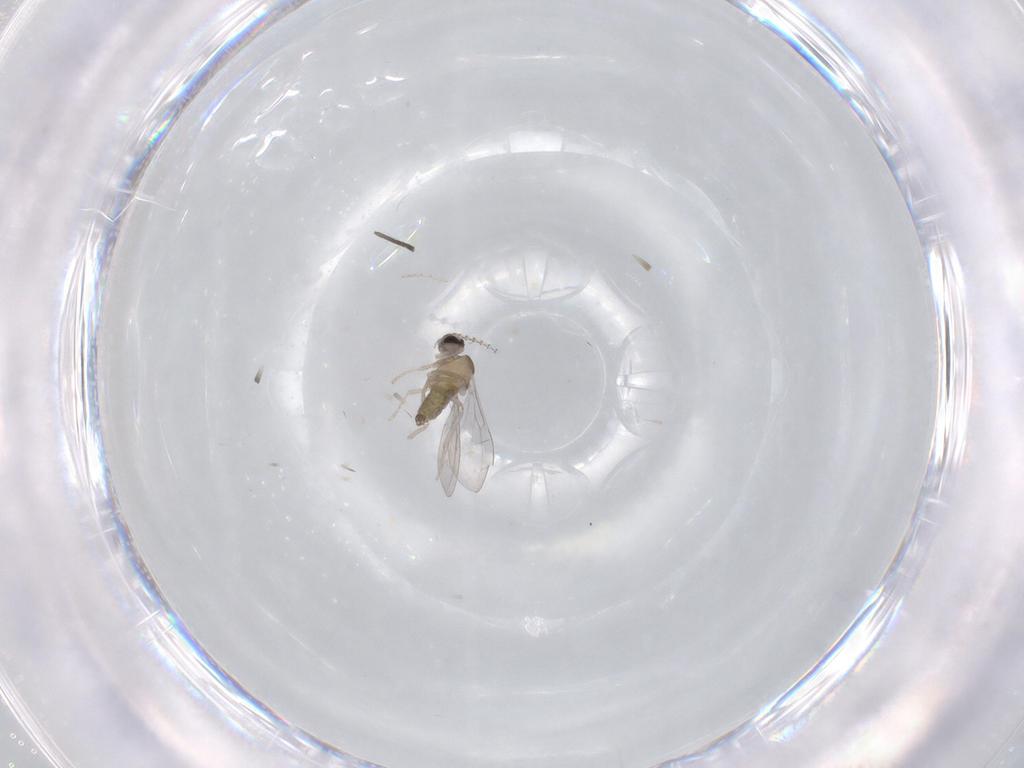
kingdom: Animalia
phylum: Arthropoda
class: Insecta
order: Diptera
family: Cecidomyiidae
